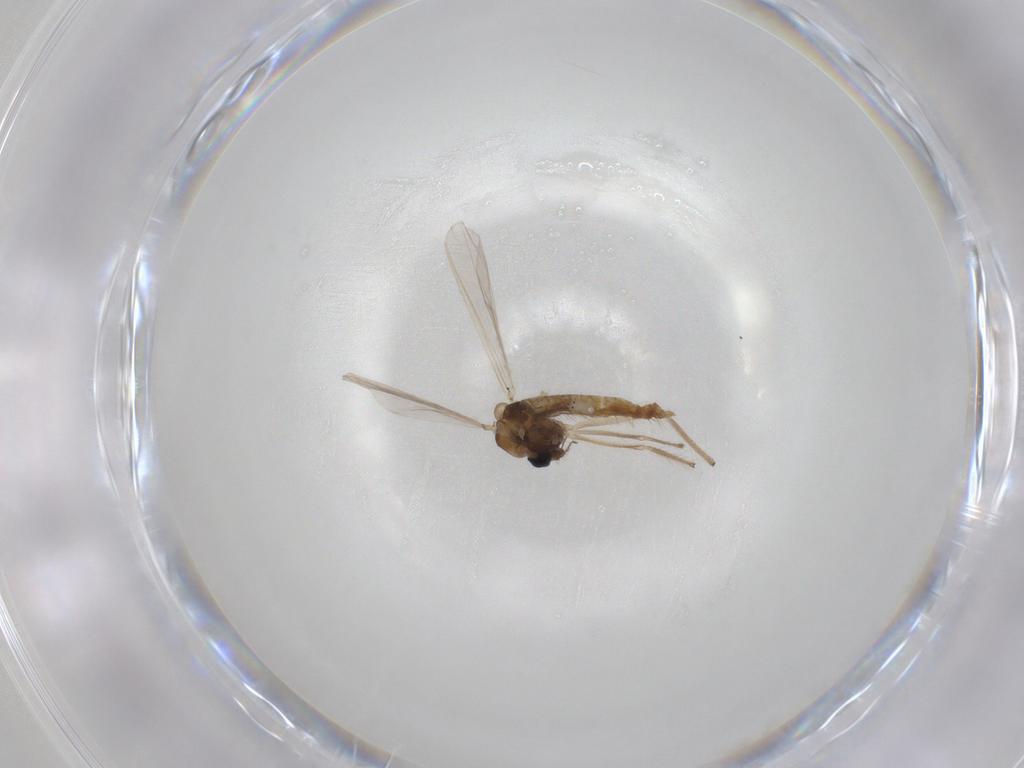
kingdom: Animalia
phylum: Arthropoda
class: Insecta
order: Diptera
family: Chironomidae
